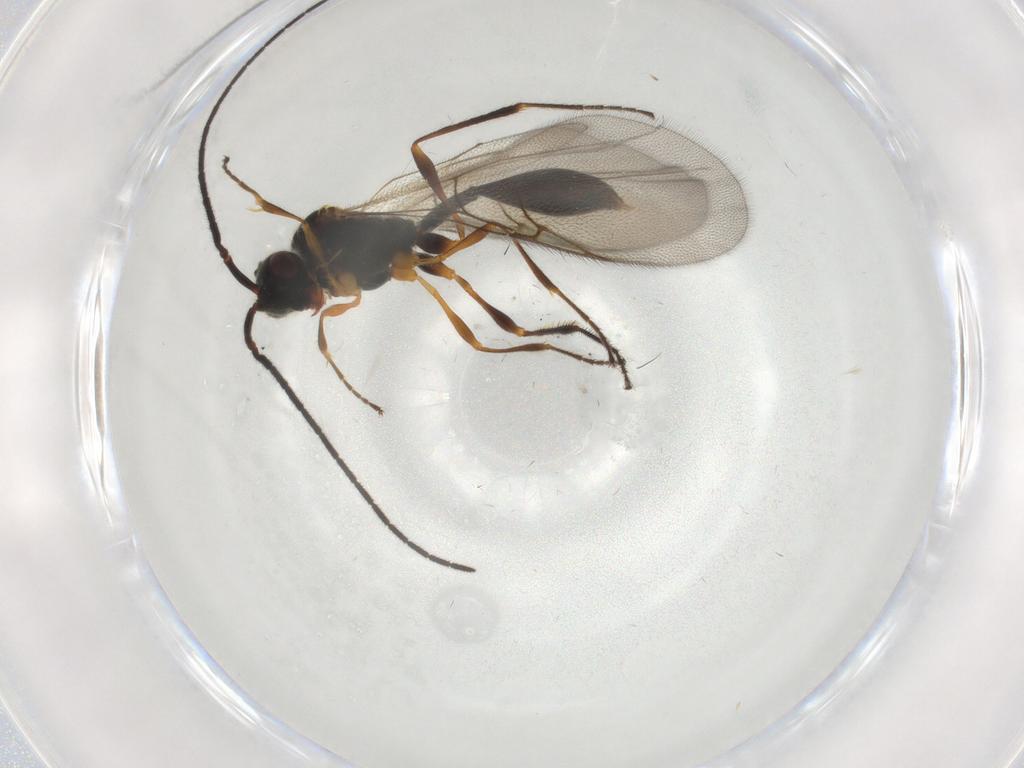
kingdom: Animalia
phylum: Arthropoda
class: Insecta
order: Hymenoptera
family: Diapriidae
